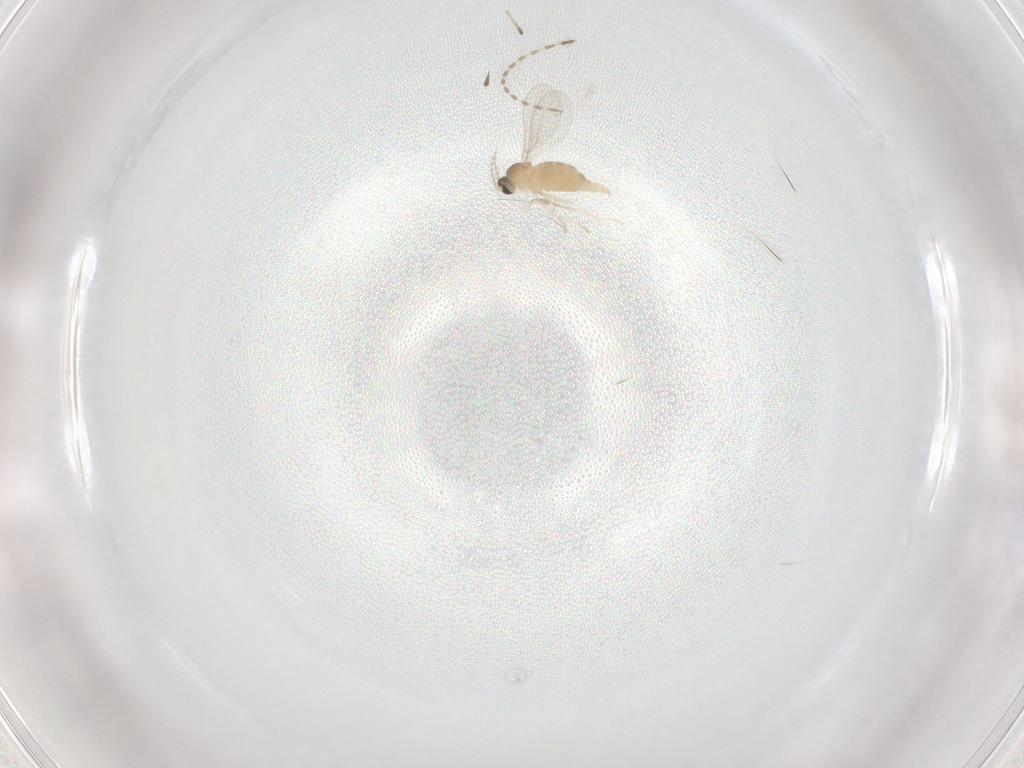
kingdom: Animalia
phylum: Arthropoda
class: Insecta
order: Diptera
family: Cecidomyiidae
